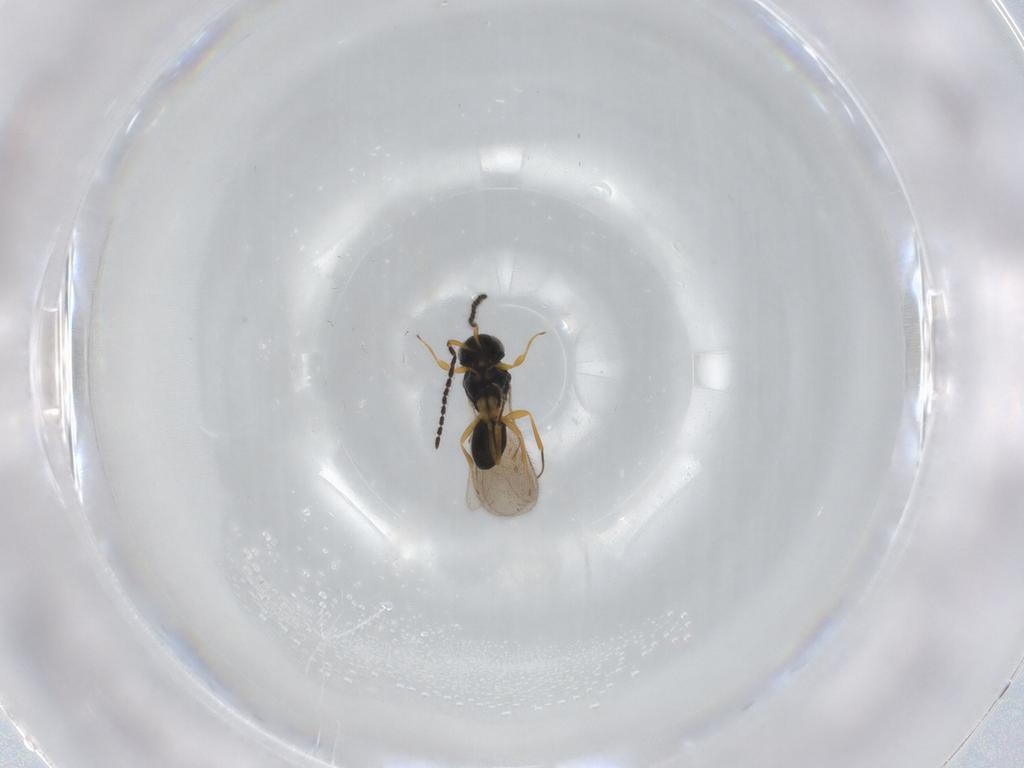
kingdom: Animalia
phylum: Arthropoda
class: Insecta
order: Hymenoptera
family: Scelionidae
